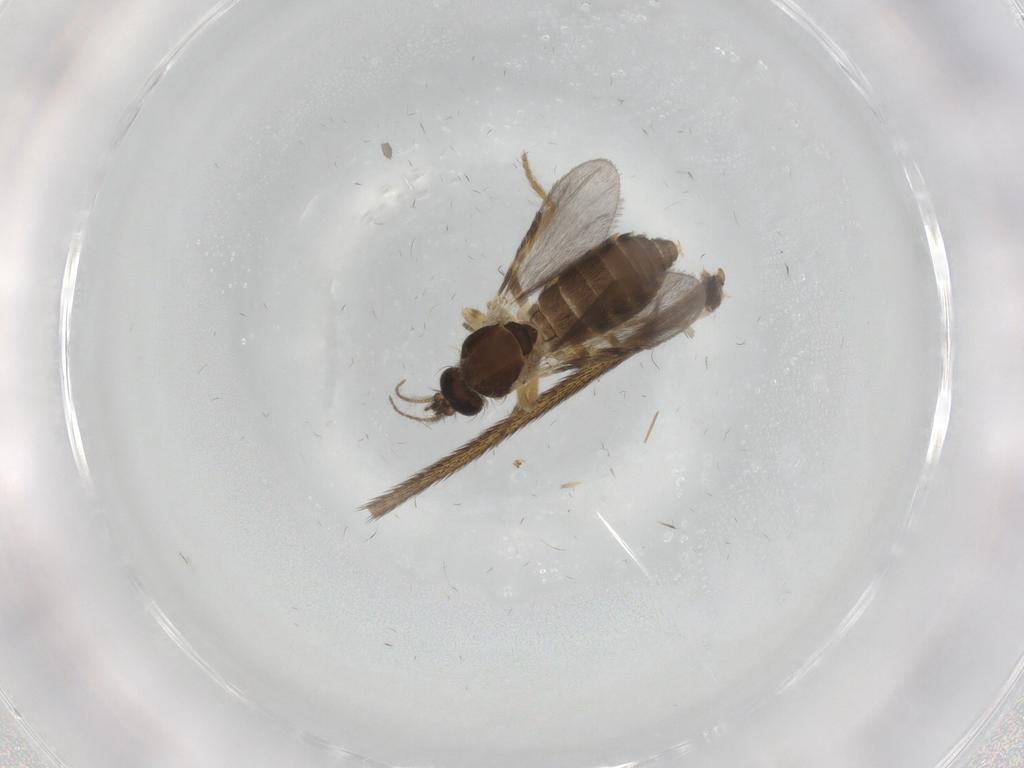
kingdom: Animalia
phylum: Arthropoda
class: Insecta
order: Diptera
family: Ceratopogonidae
